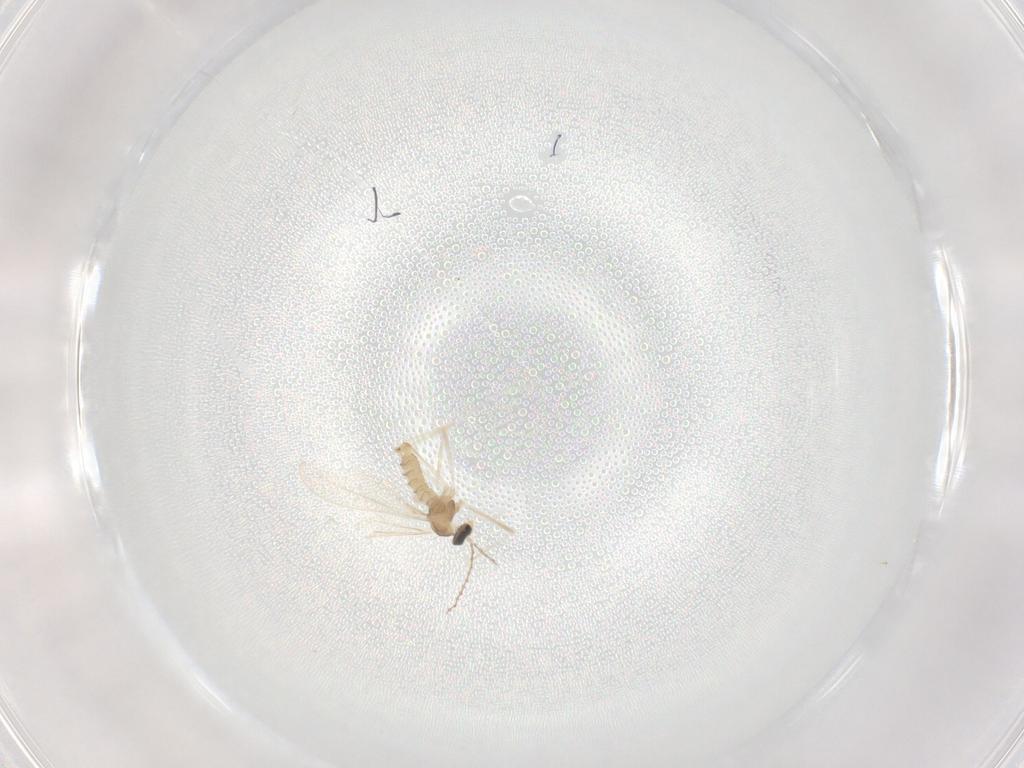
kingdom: Animalia
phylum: Arthropoda
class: Insecta
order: Diptera
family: Cecidomyiidae
